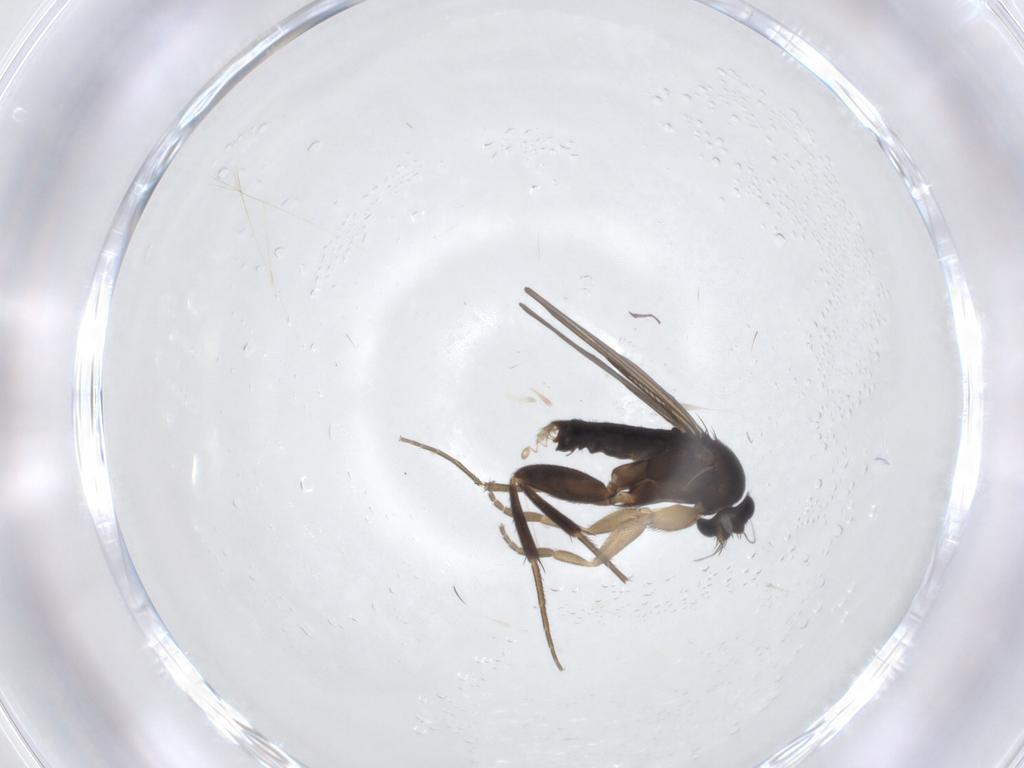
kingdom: Animalia
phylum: Arthropoda
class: Insecta
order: Diptera
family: Phoridae
